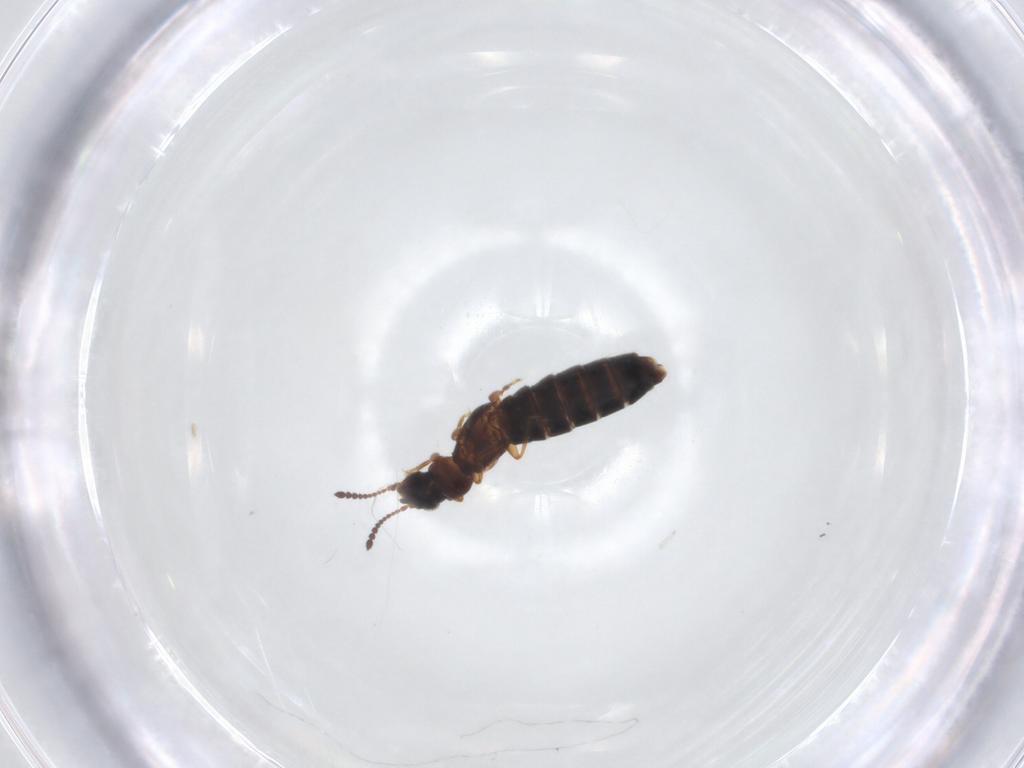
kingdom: Animalia
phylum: Arthropoda
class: Insecta
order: Coleoptera
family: Staphylinidae
